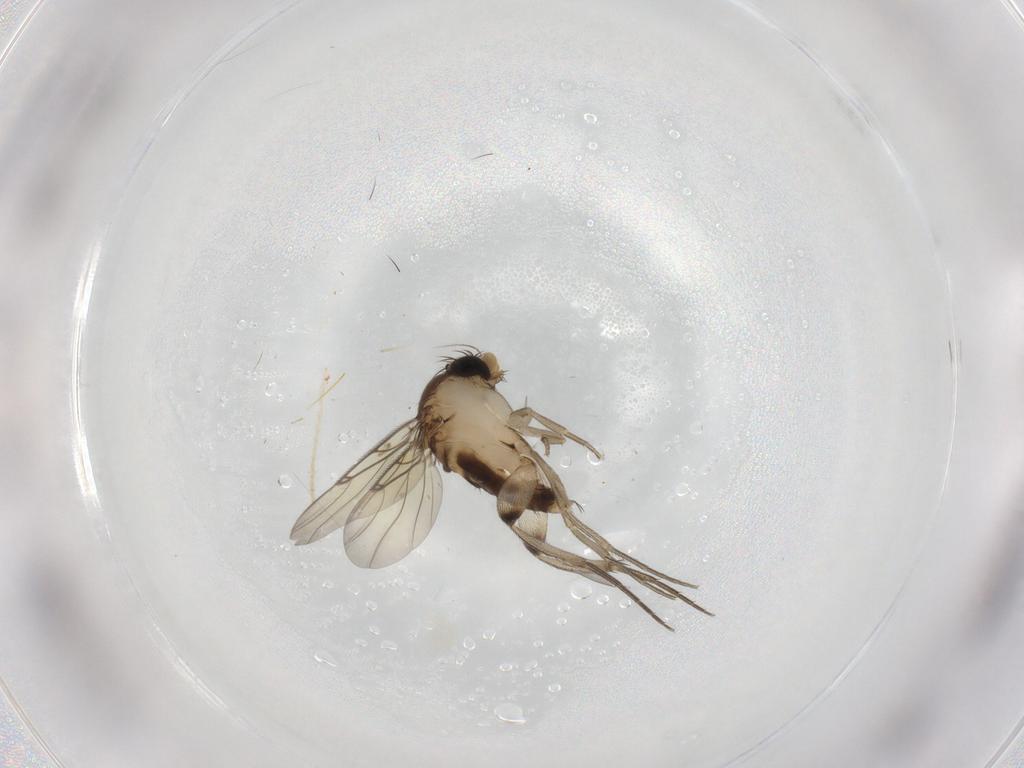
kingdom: Animalia
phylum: Arthropoda
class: Insecta
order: Diptera
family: Phoridae
